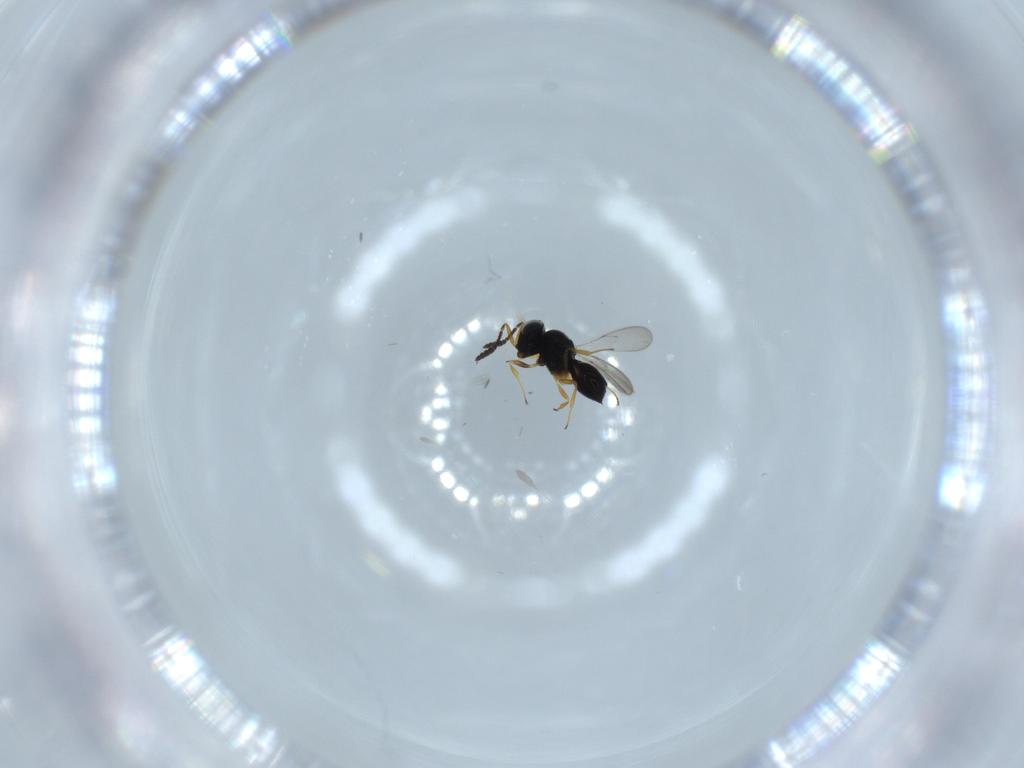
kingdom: Animalia
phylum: Arthropoda
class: Insecta
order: Hymenoptera
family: Scelionidae
